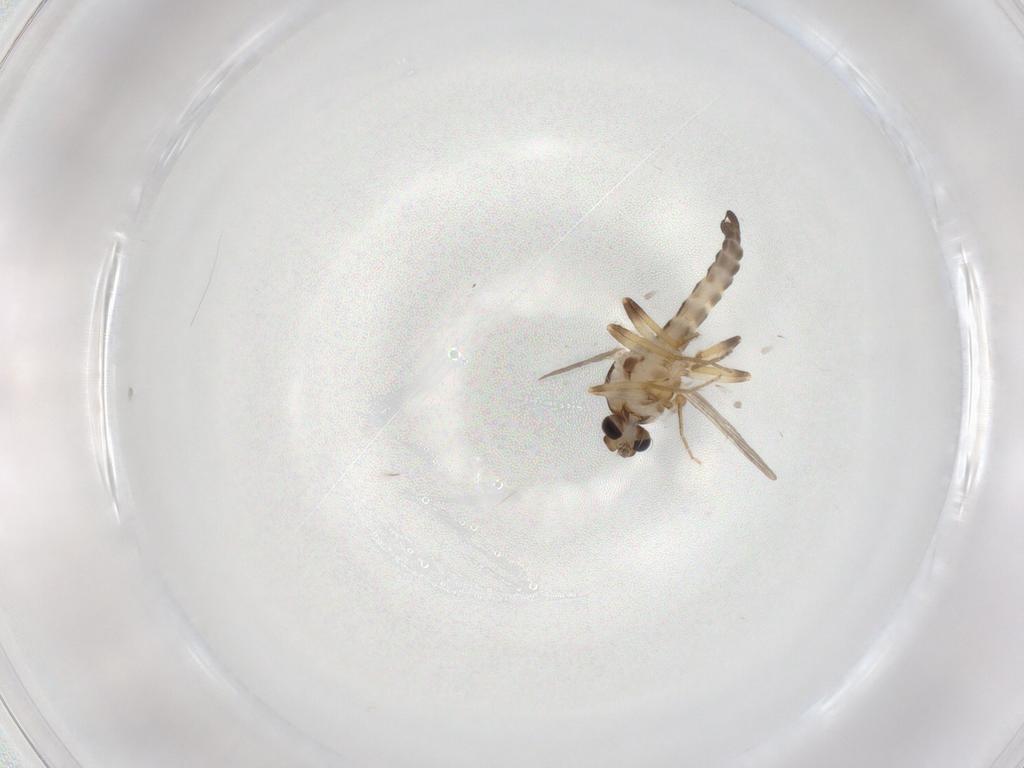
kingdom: Animalia
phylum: Arthropoda
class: Insecta
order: Diptera
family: Ceratopogonidae
